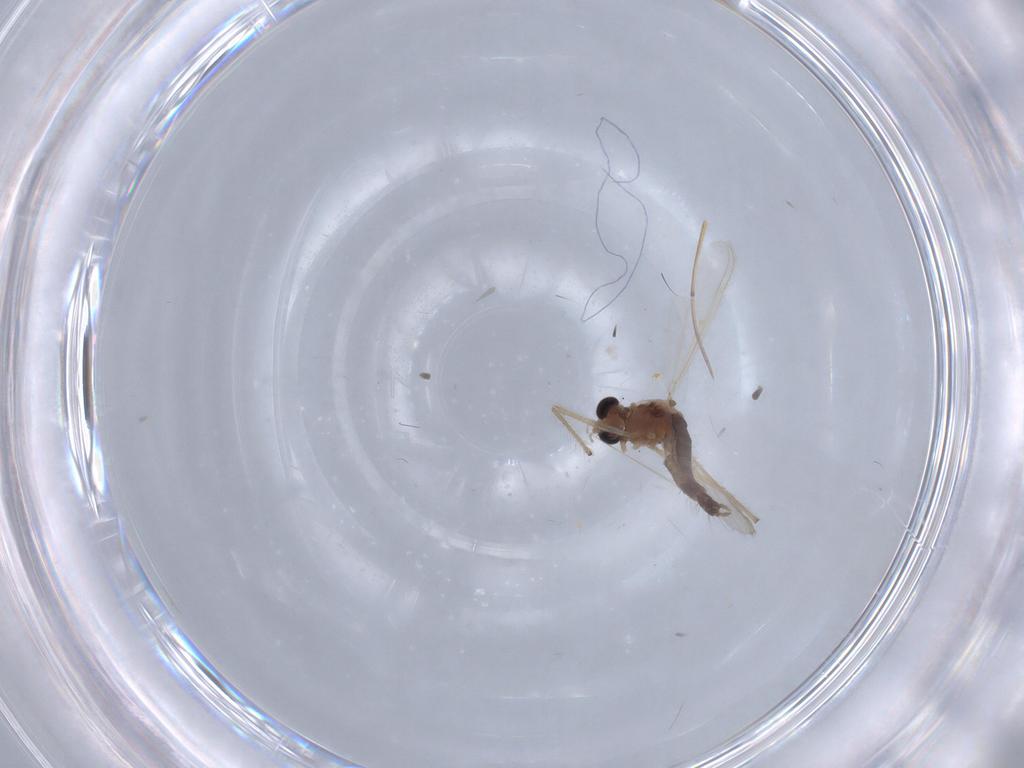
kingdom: Animalia
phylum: Arthropoda
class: Insecta
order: Diptera
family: Chironomidae
